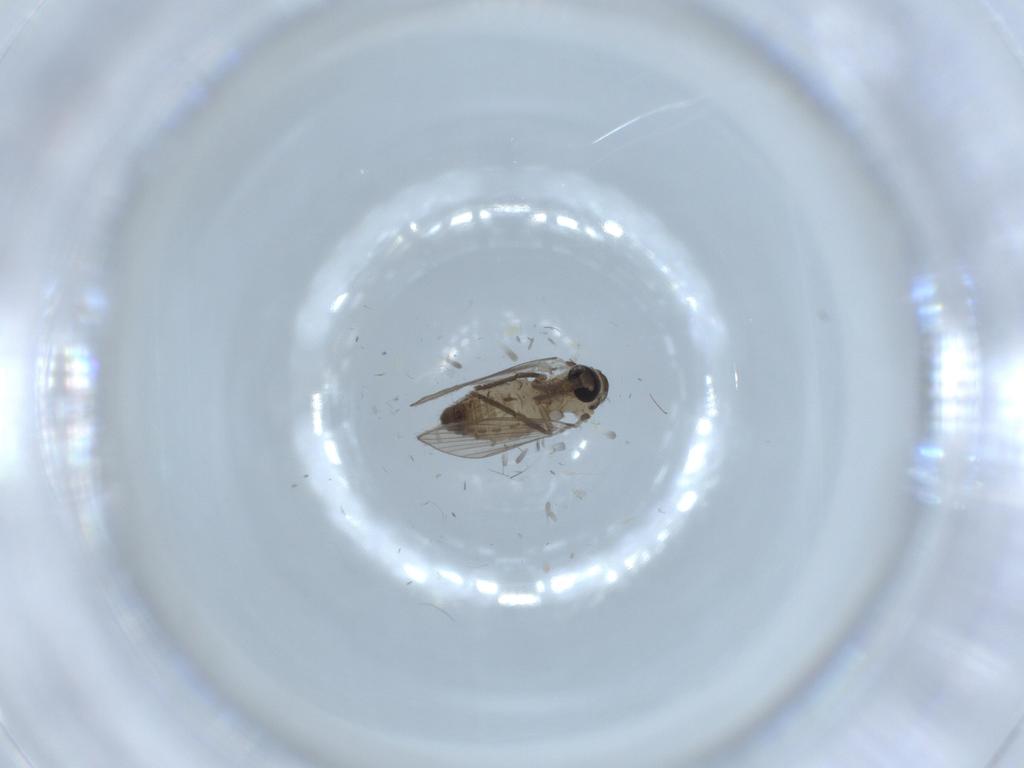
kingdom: Animalia
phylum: Arthropoda
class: Insecta
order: Diptera
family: Psychodidae
